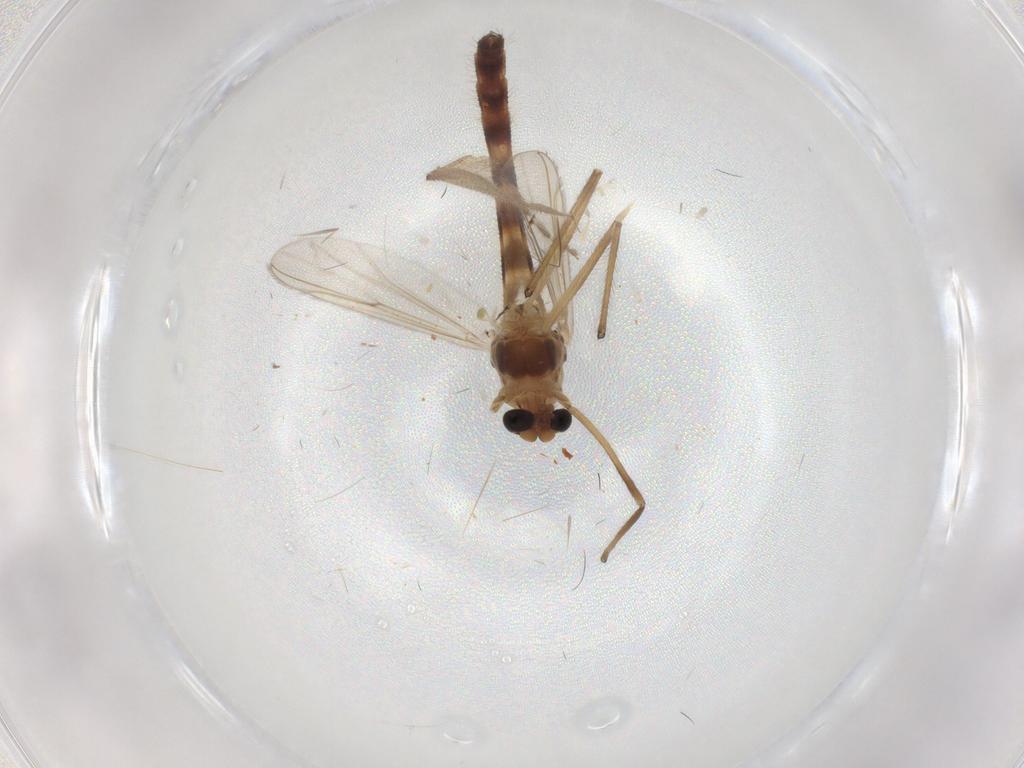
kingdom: Animalia
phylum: Arthropoda
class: Insecta
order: Diptera
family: Chironomidae
